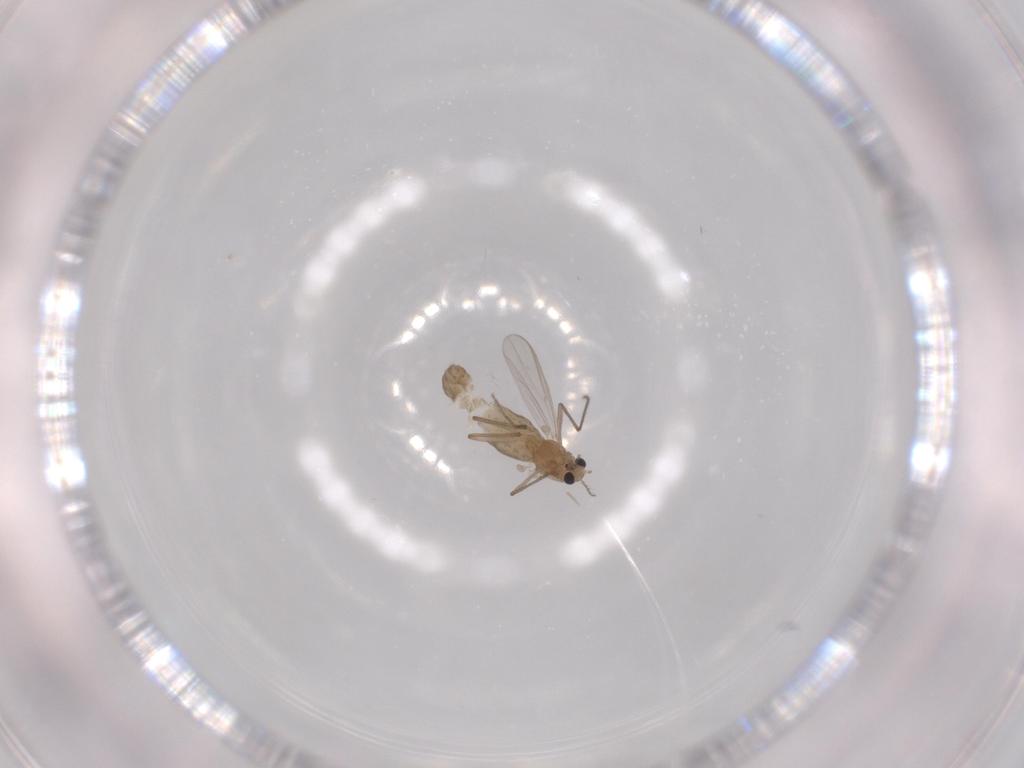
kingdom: Animalia
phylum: Arthropoda
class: Insecta
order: Diptera
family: Chironomidae
